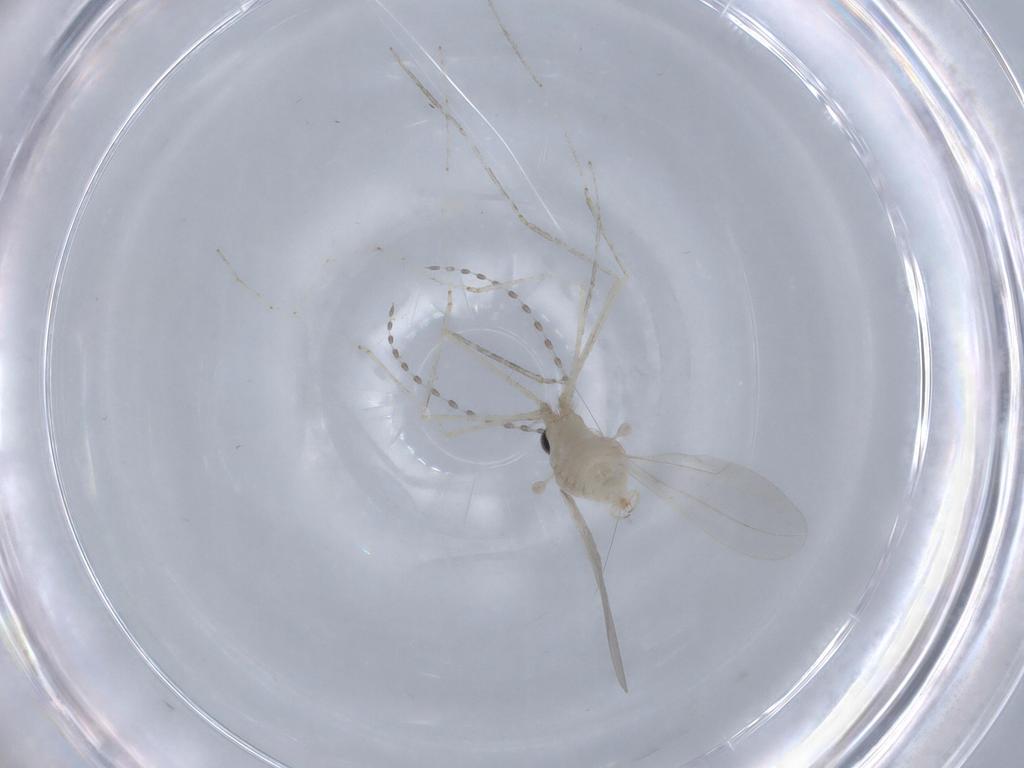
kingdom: Animalia
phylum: Arthropoda
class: Insecta
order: Diptera
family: Cecidomyiidae
